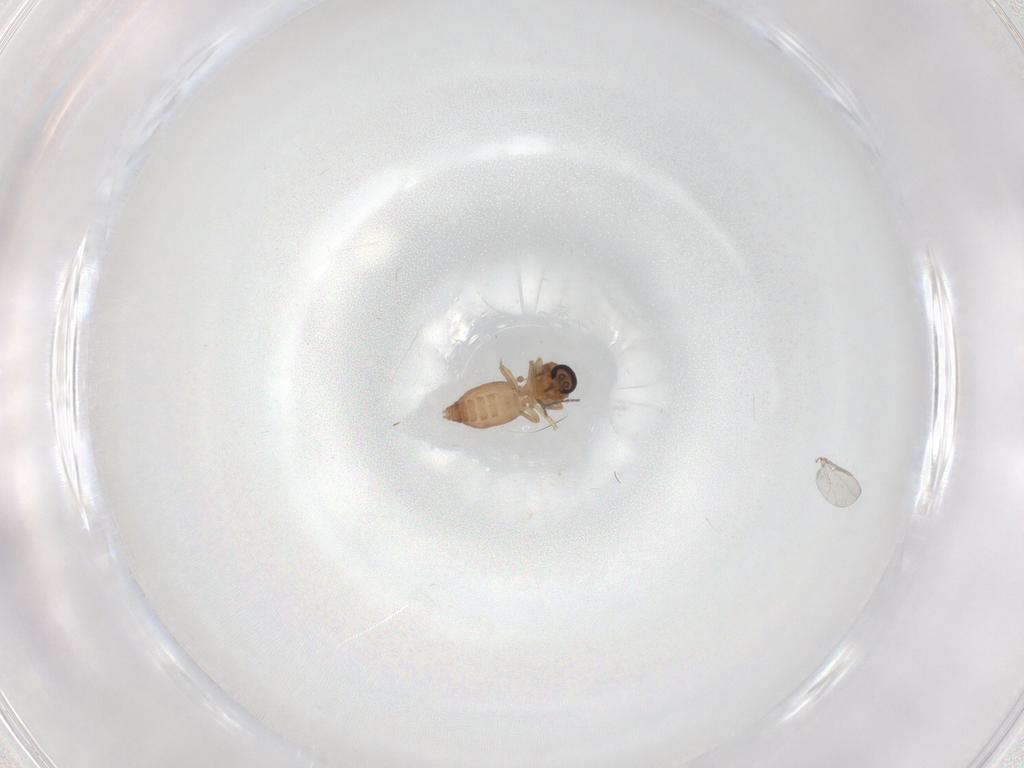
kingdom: Animalia
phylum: Arthropoda
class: Insecta
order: Diptera
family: Ceratopogonidae
